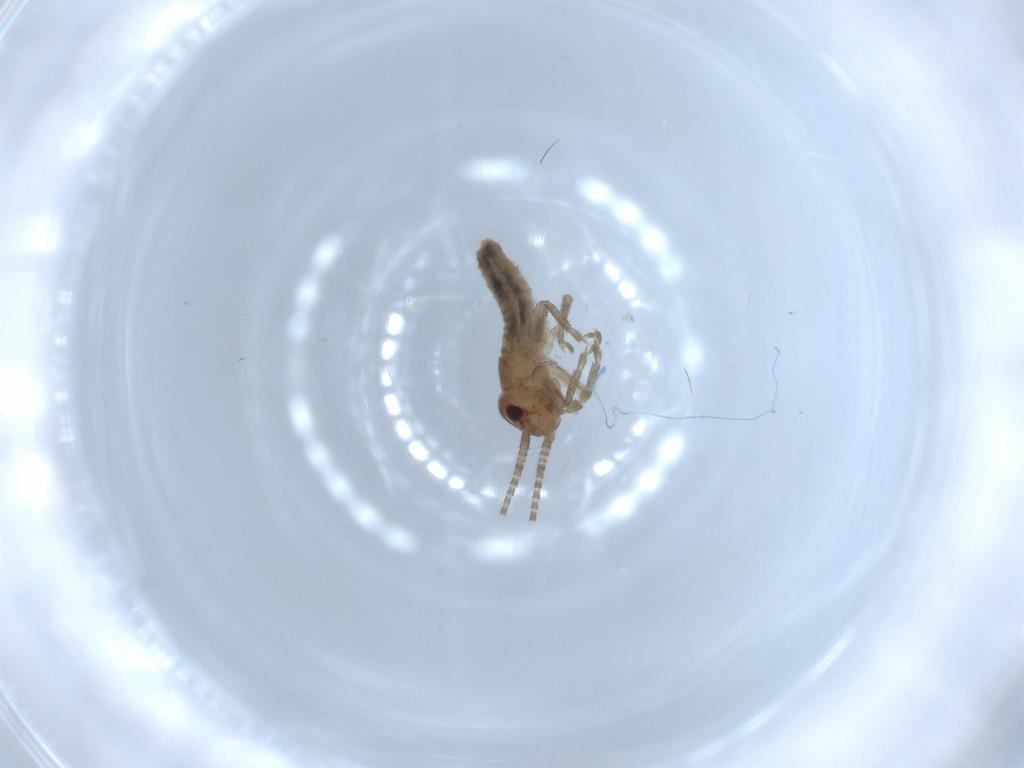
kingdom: Animalia
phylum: Arthropoda
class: Insecta
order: Orthoptera
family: Gryllidae
